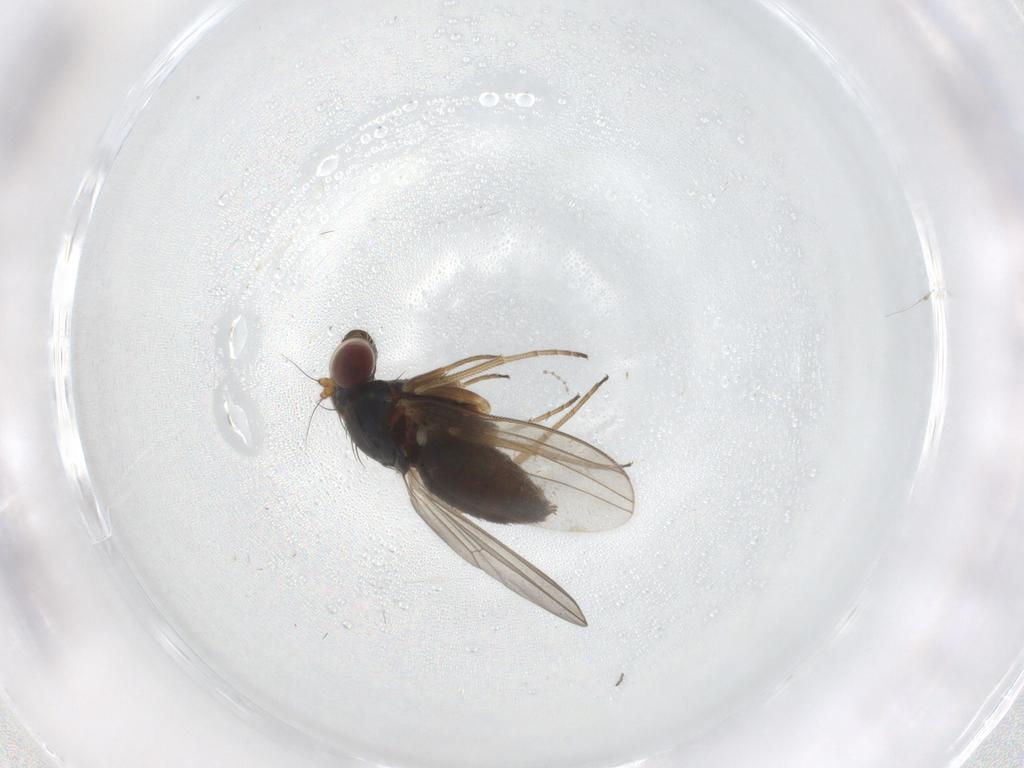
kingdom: Animalia
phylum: Arthropoda
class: Insecta
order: Diptera
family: Dolichopodidae
